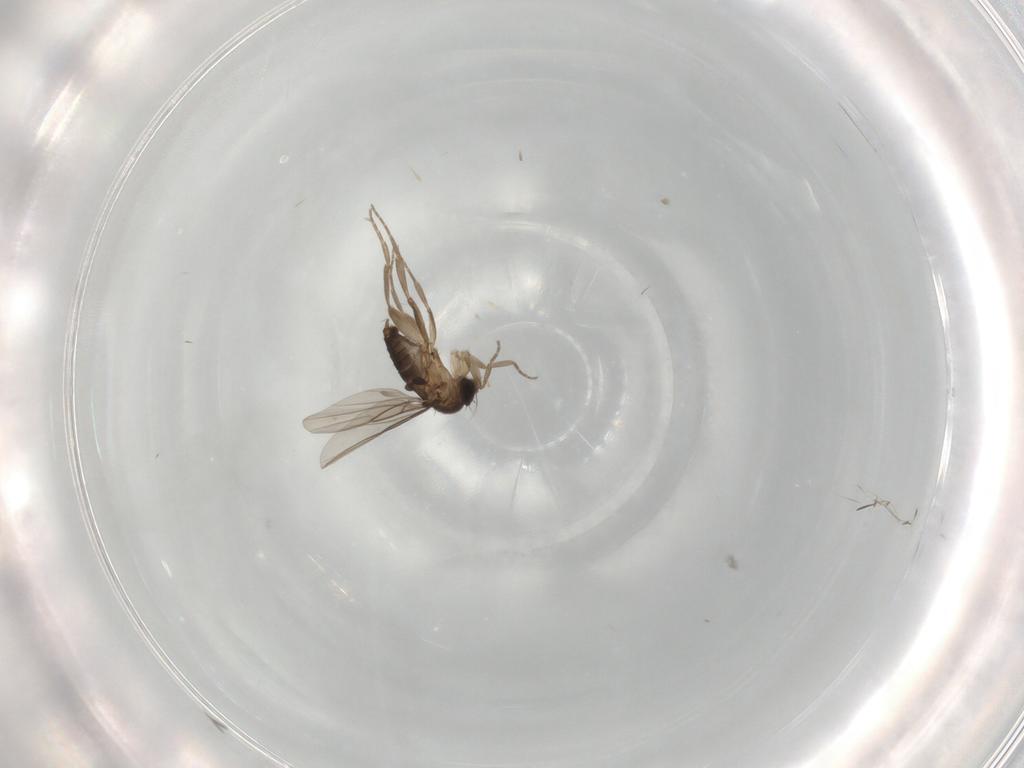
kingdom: Animalia
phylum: Arthropoda
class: Insecta
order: Diptera
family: Phoridae
